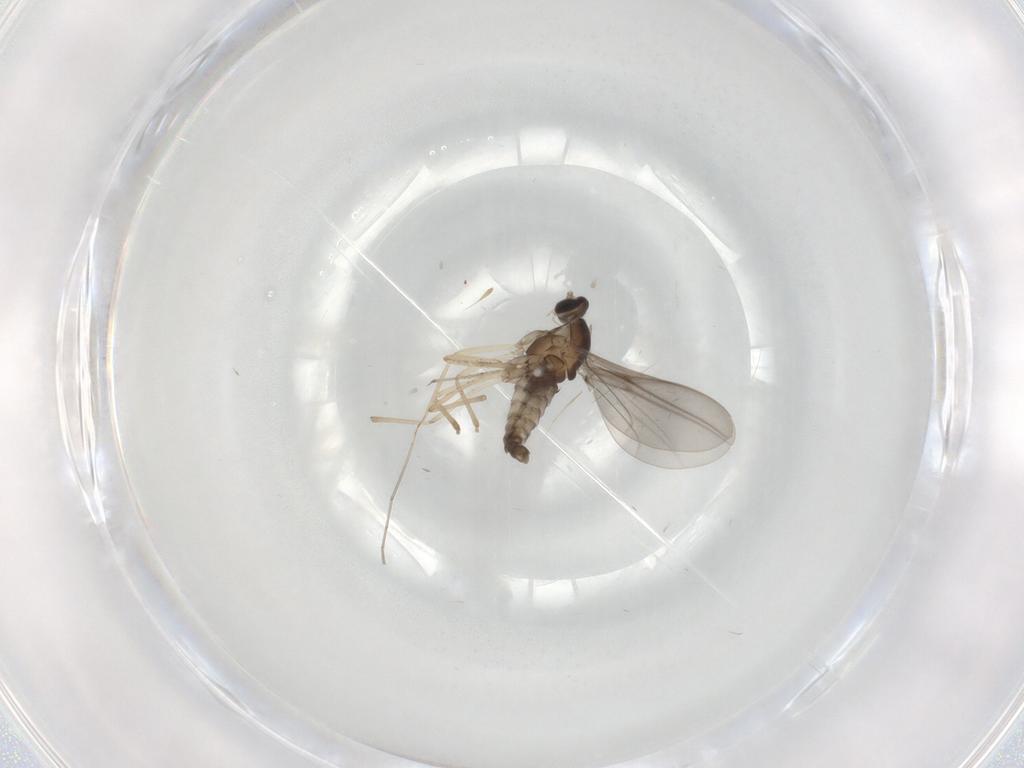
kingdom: Animalia
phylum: Arthropoda
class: Insecta
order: Diptera
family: Cecidomyiidae
